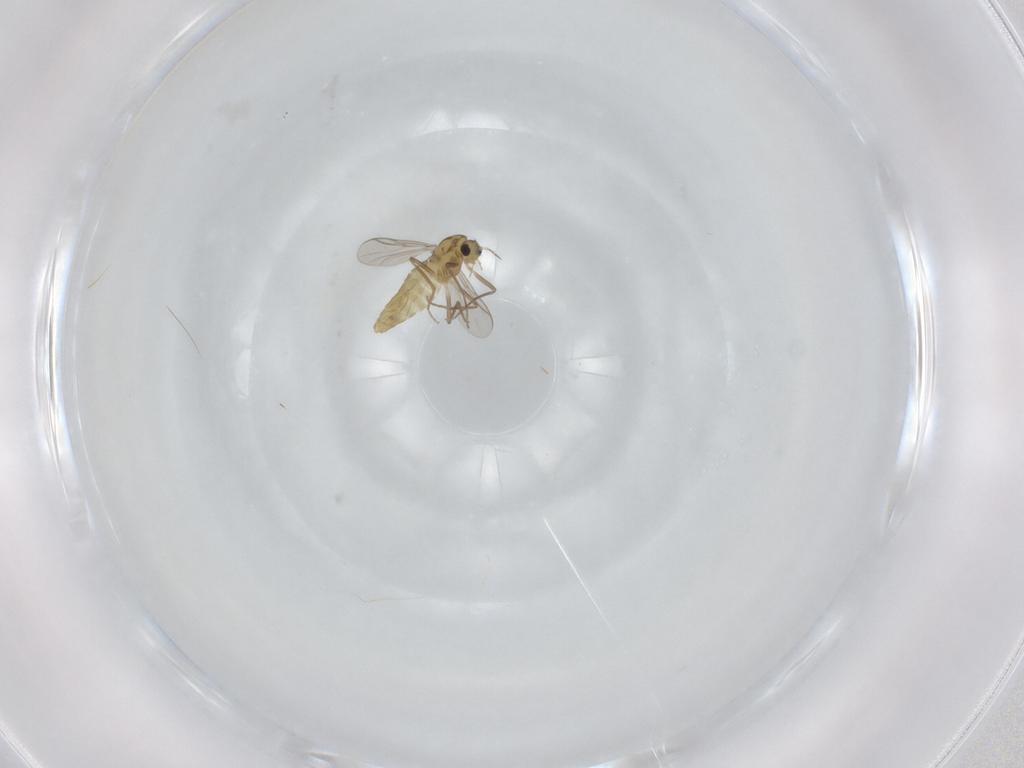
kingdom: Animalia
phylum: Arthropoda
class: Insecta
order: Diptera
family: Chironomidae
